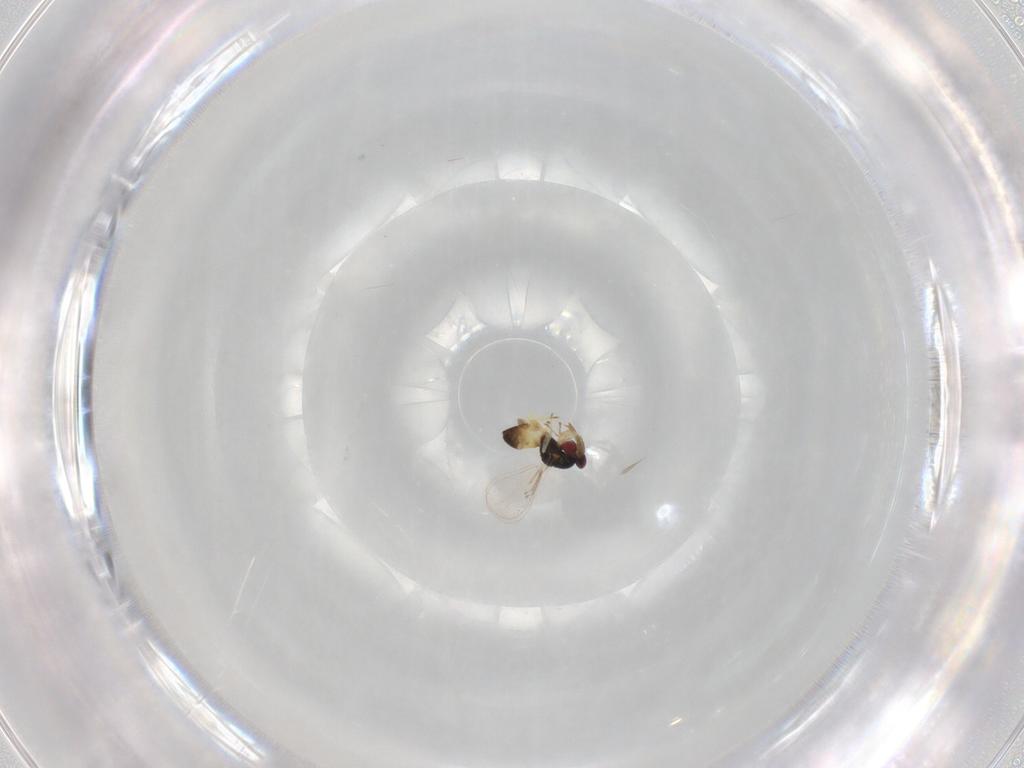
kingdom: Animalia
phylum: Arthropoda
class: Insecta
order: Hymenoptera
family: Eulophidae
